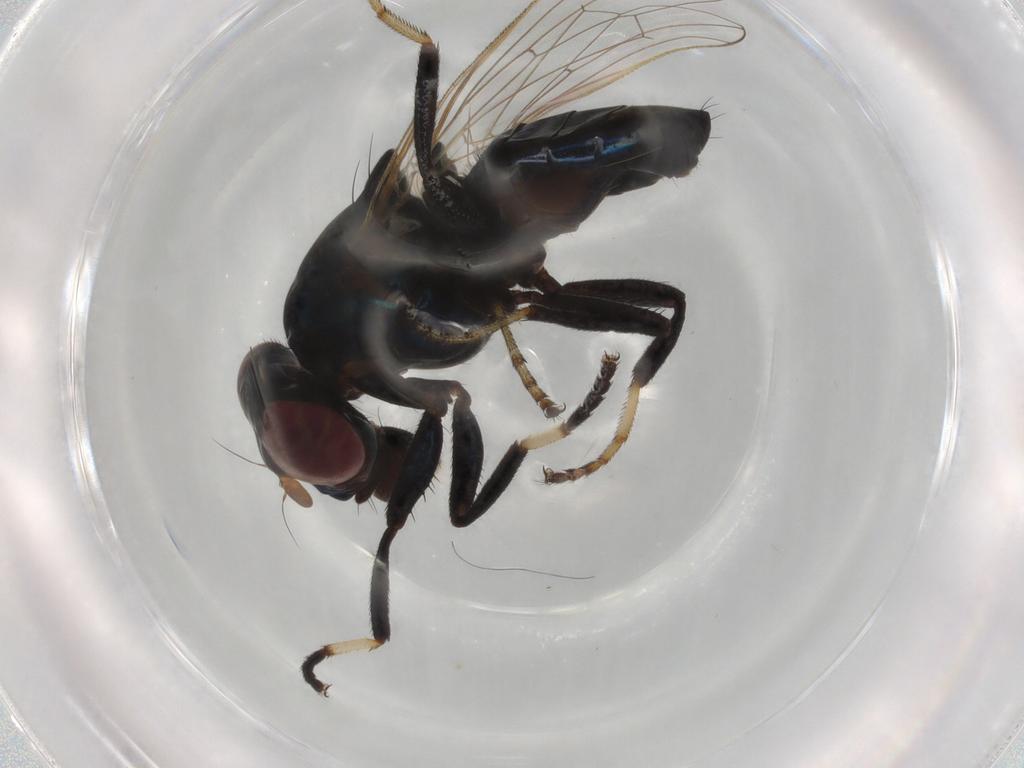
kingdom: Animalia
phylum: Arthropoda
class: Insecta
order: Diptera
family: Cecidomyiidae
